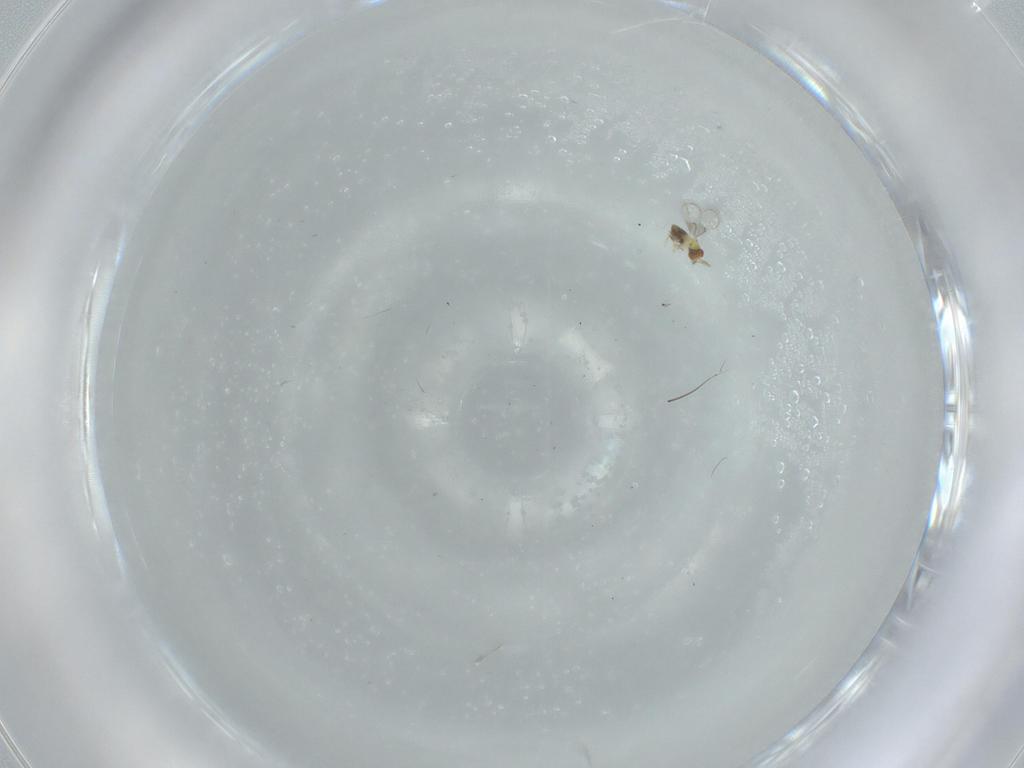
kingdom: Animalia
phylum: Arthropoda
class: Insecta
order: Hymenoptera
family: Trichogrammatidae
